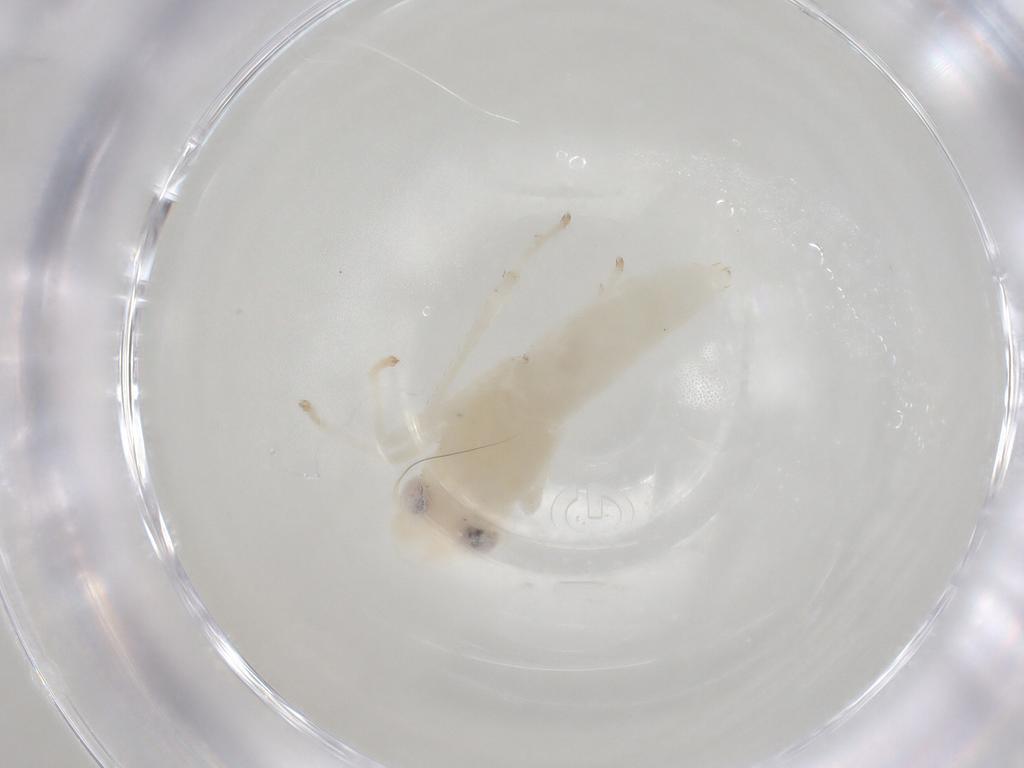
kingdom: Animalia
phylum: Arthropoda
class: Insecta
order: Hemiptera
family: Cicadellidae
